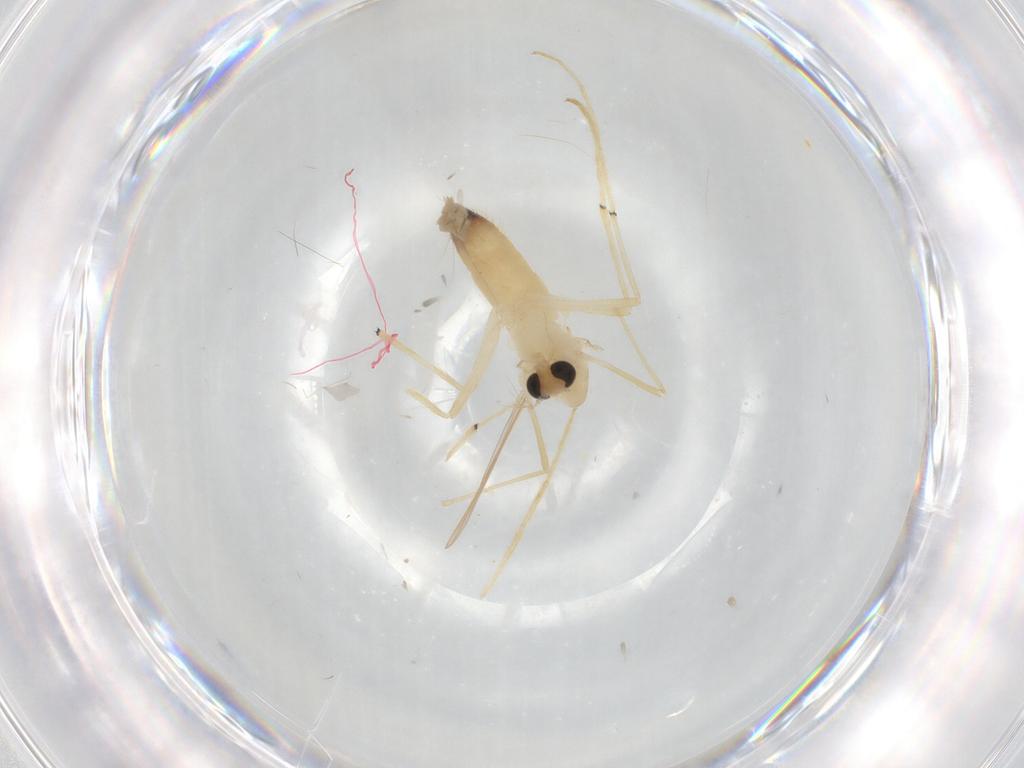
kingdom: Animalia
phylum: Arthropoda
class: Insecta
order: Diptera
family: Chironomidae
